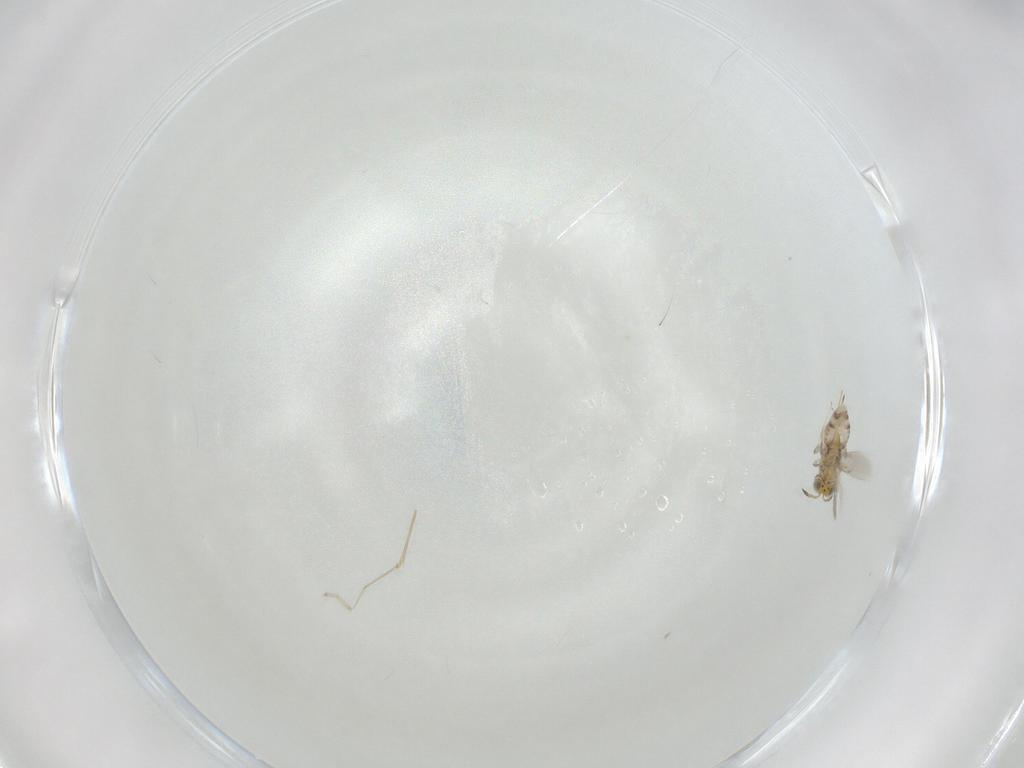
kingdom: Animalia
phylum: Arthropoda
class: Insecta
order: Hymenoptera
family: Aphelinidae
